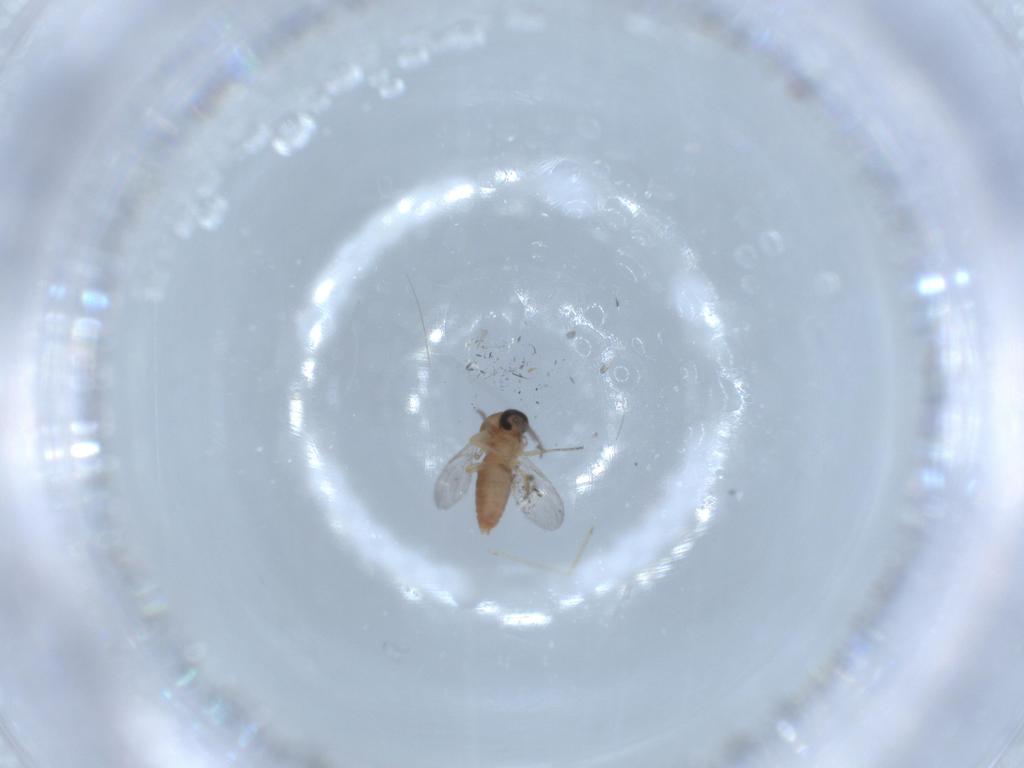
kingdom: Animalia
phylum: Arthropoda
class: Insecta
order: Diptera
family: Ceratopogonidae
